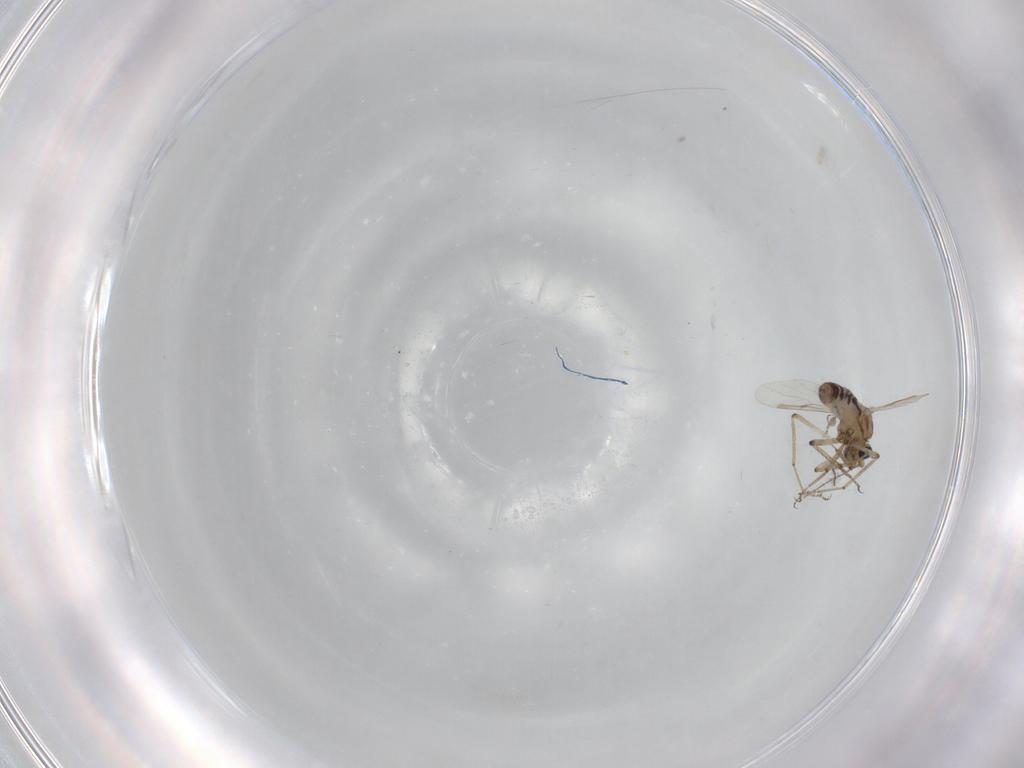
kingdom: Animalia
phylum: Arthropoda
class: Insecta
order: Diptera
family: Ceratopogonidae
